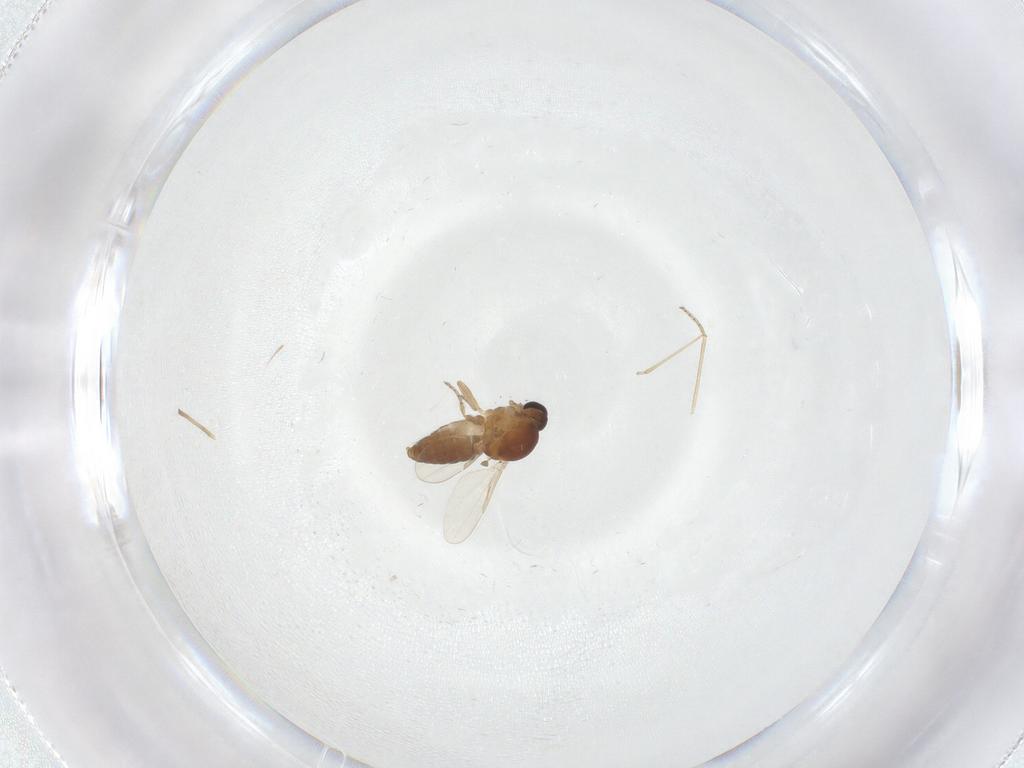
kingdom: Animalia
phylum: Arthropoda
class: Insecta
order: Diptera
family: Ceratopogonidae
